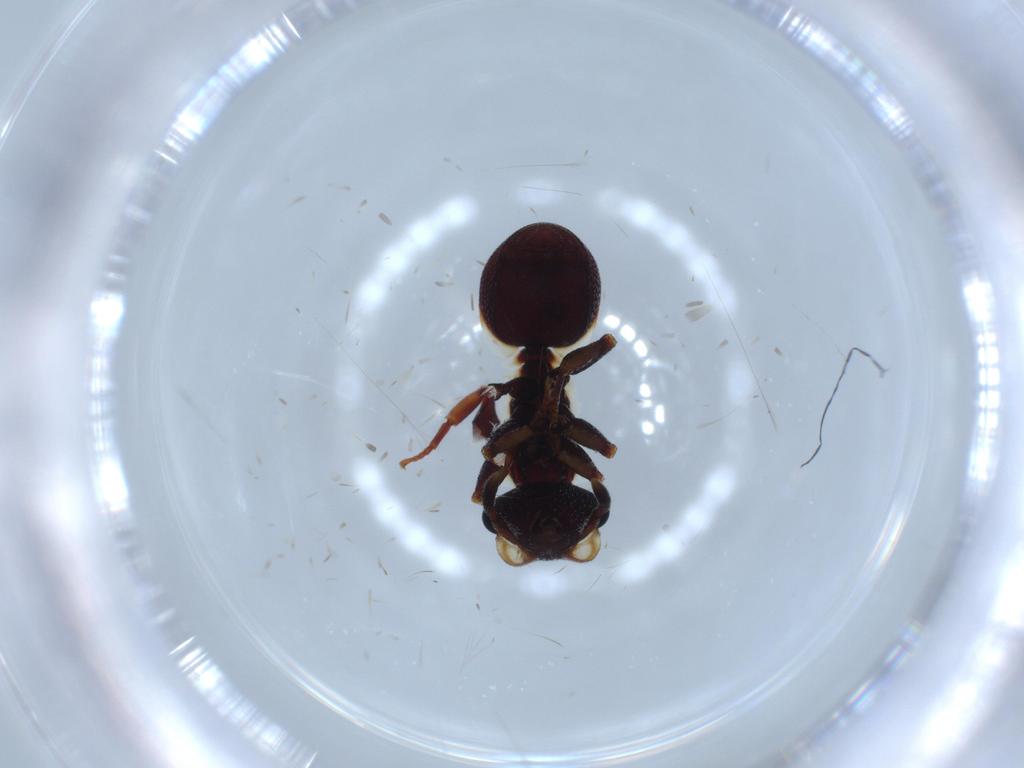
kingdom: Animalia
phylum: Arthropoda
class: Insecta
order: Hymenoptera
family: Formicidae
